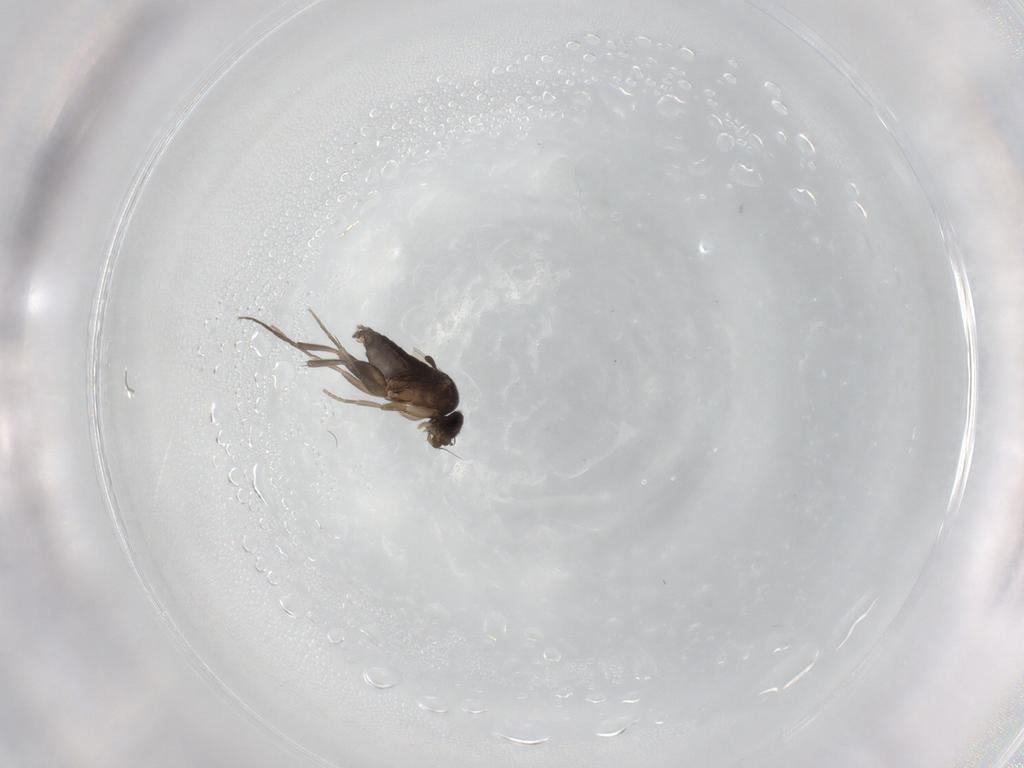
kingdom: Animalia
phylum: Arthropoda
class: Insecta
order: Diptera
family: Phoridae
